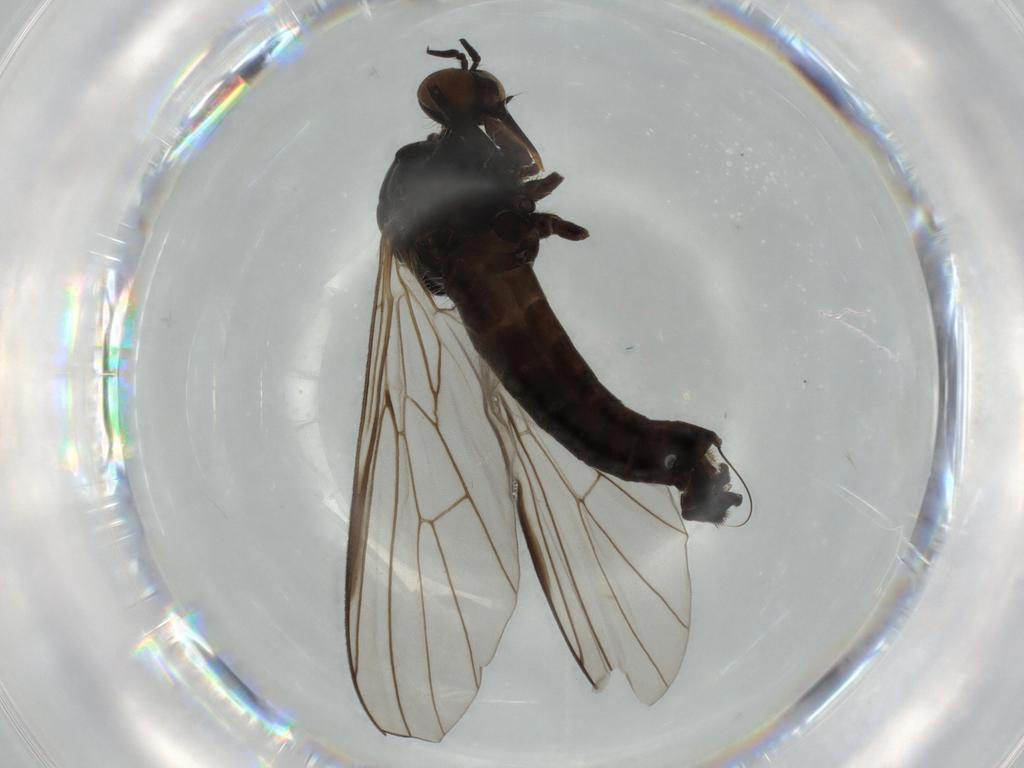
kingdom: Animalia
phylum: Arthropoda
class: Insecta
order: Diptera
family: Empididae
